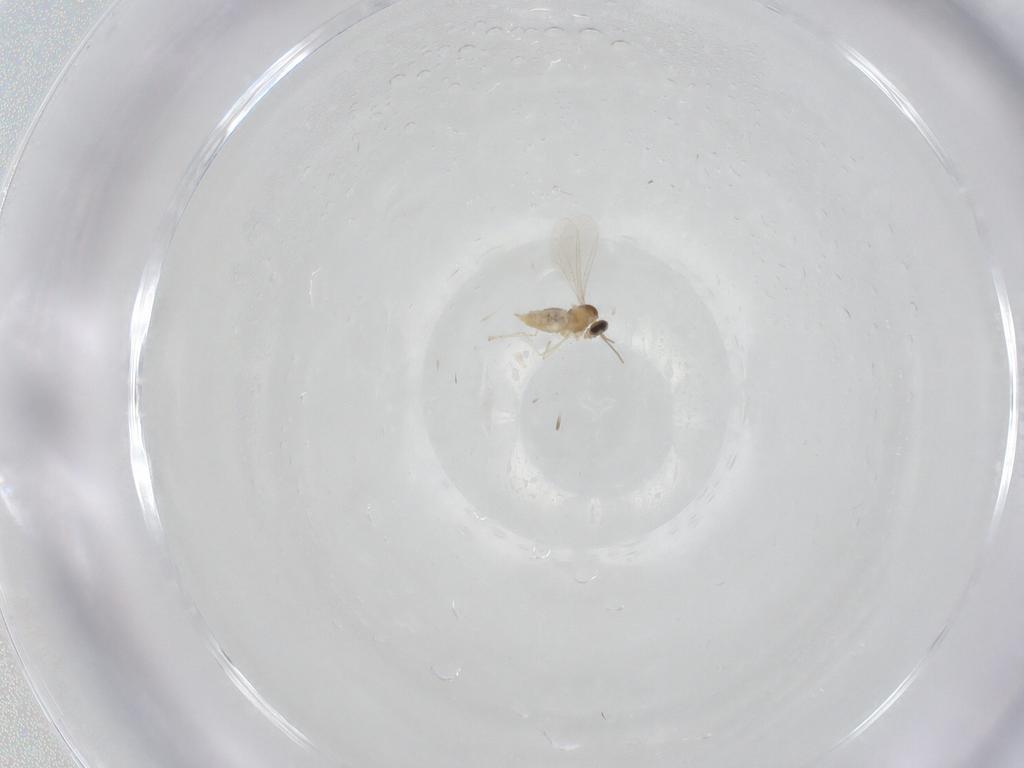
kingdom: Animalia
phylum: Arthropoda
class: Insecta
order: Diptera
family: Cecidomyiidae
